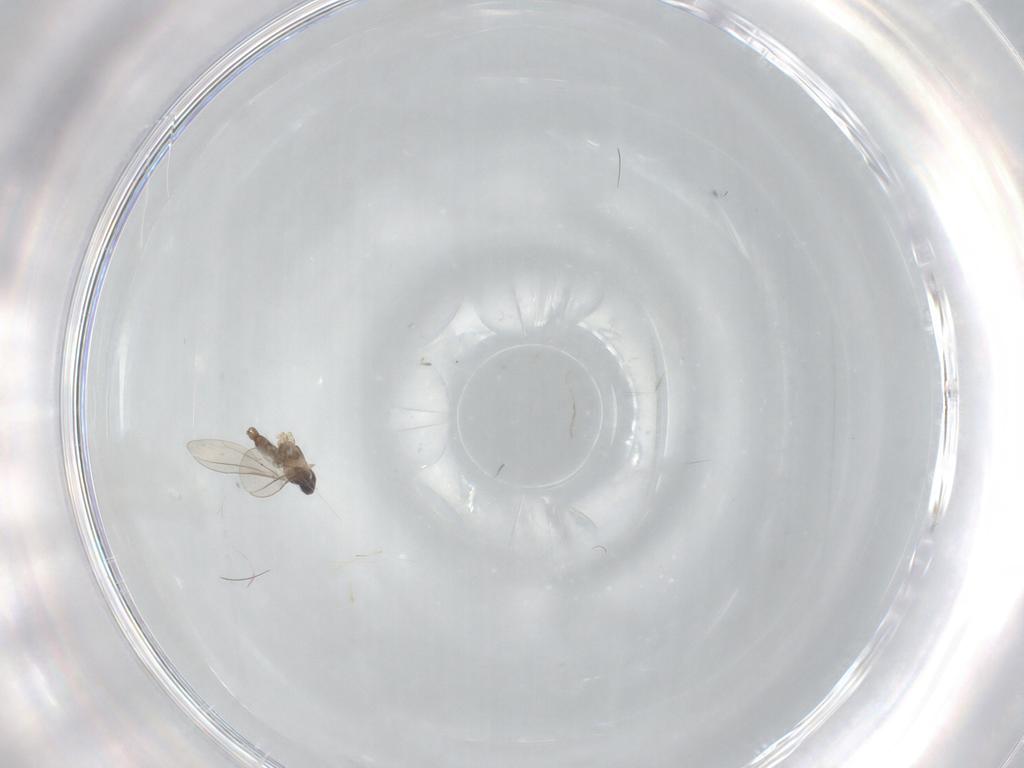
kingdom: Animalia
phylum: Arthropoda
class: Insecta
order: Diptera
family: Cecidomyiidae
